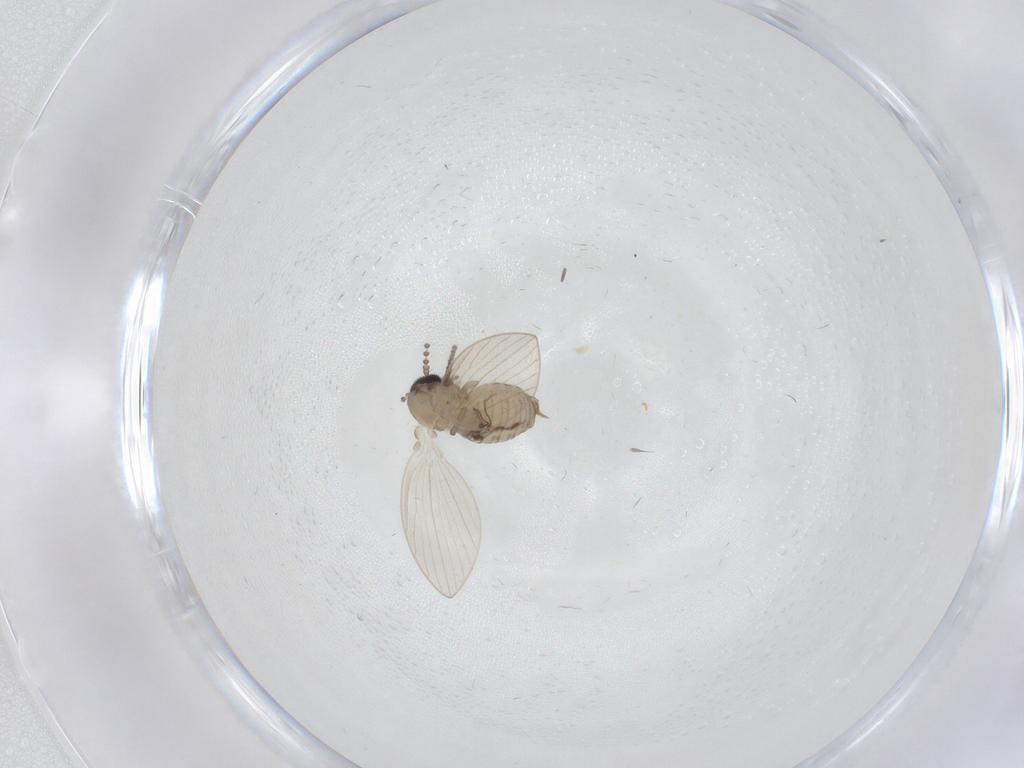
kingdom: Animalia
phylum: Arthropoda
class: Insecta
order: Diptera
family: Psychodidae
